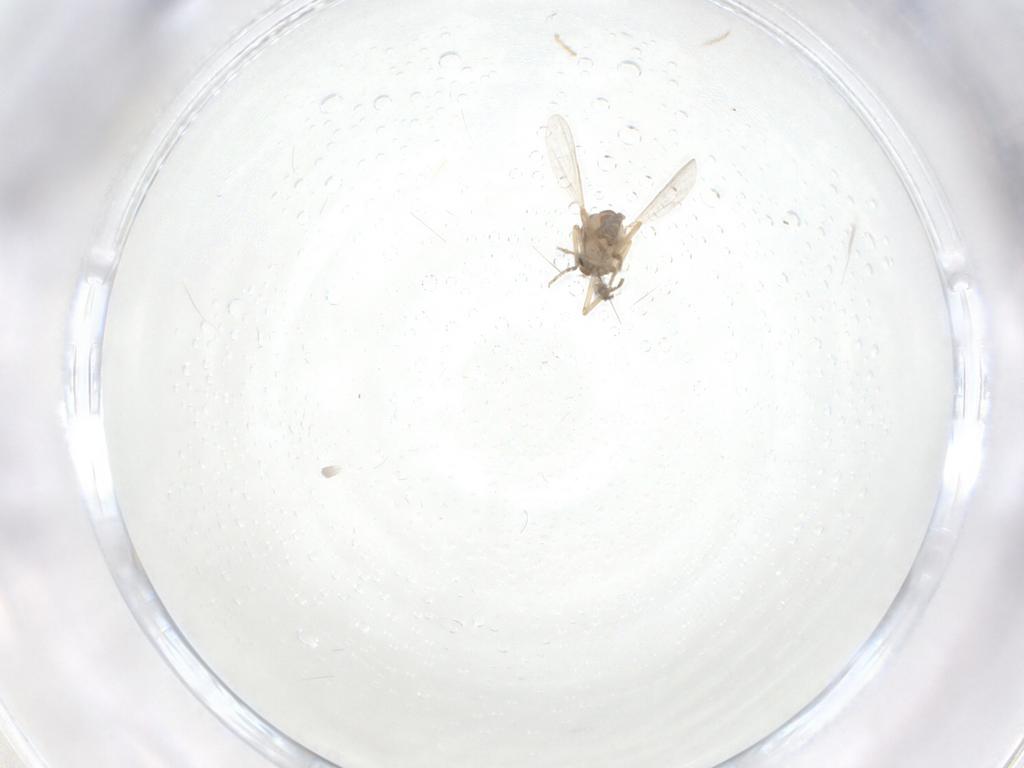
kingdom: Animalia
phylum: Arthropoda
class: Insecta
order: Diptera
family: Ceratopogonidae
